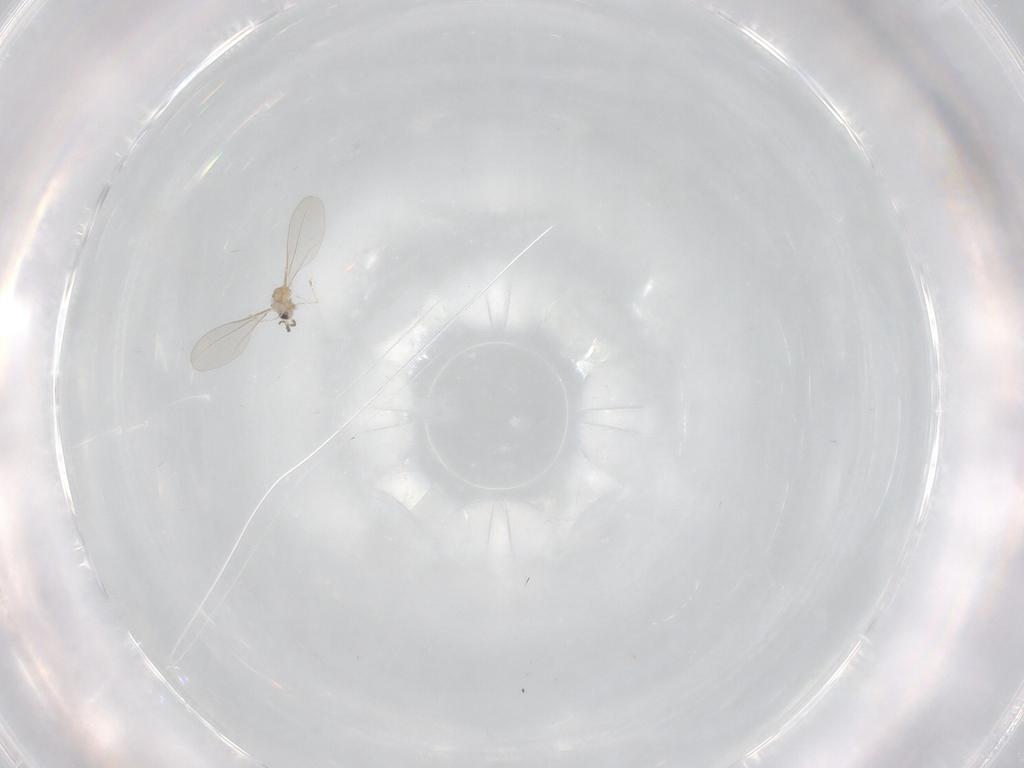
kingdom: Animalia
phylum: Arthropoda
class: Insecta
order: Diptera
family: Cecidomyiidae
